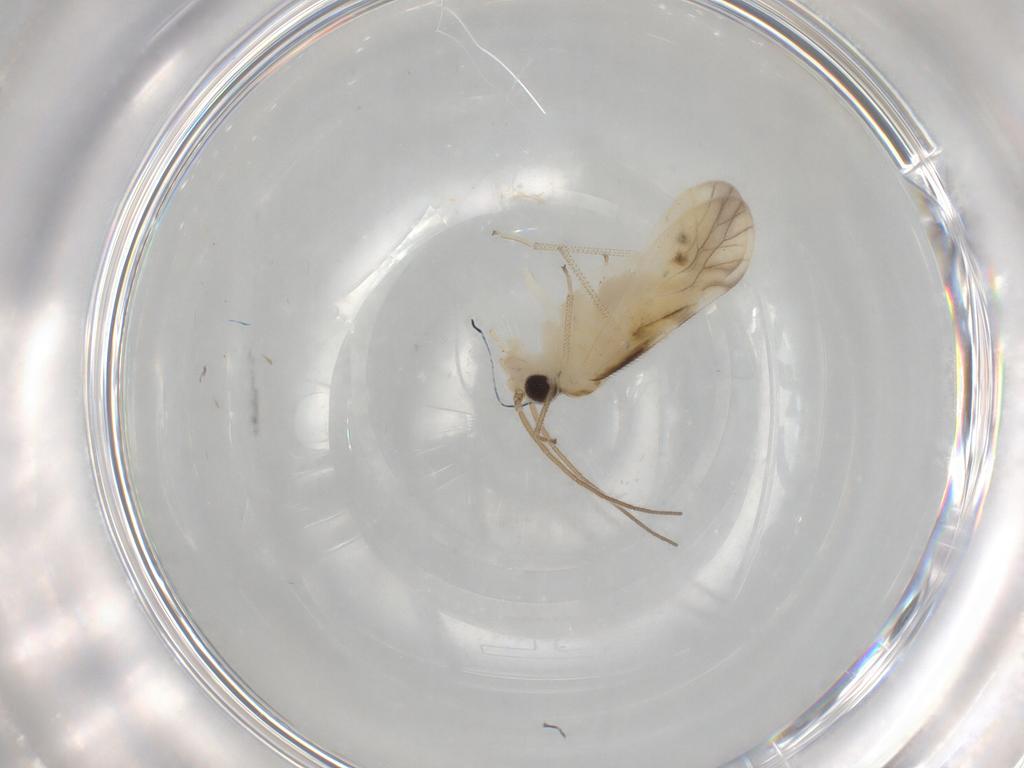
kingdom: Animalia
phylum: Arthropoda
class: Insecta
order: Psocodea
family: Caeciliusidae
